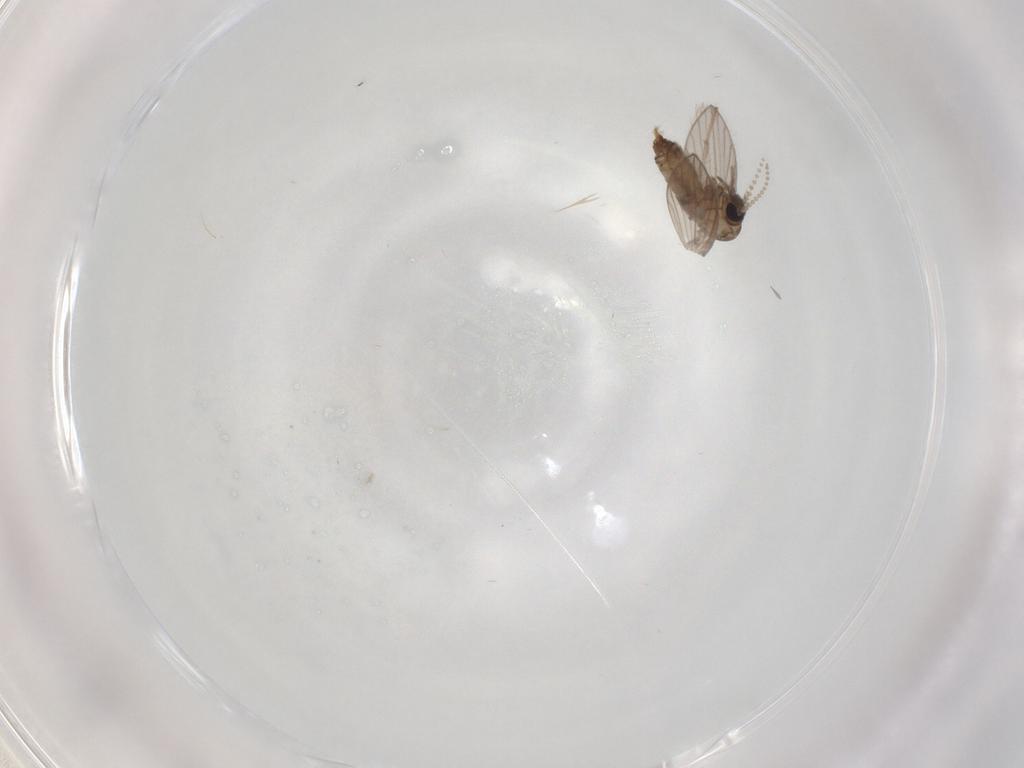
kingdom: Animalia
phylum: Arthropoda
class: Insecta
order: Diptera
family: Psychodidae
